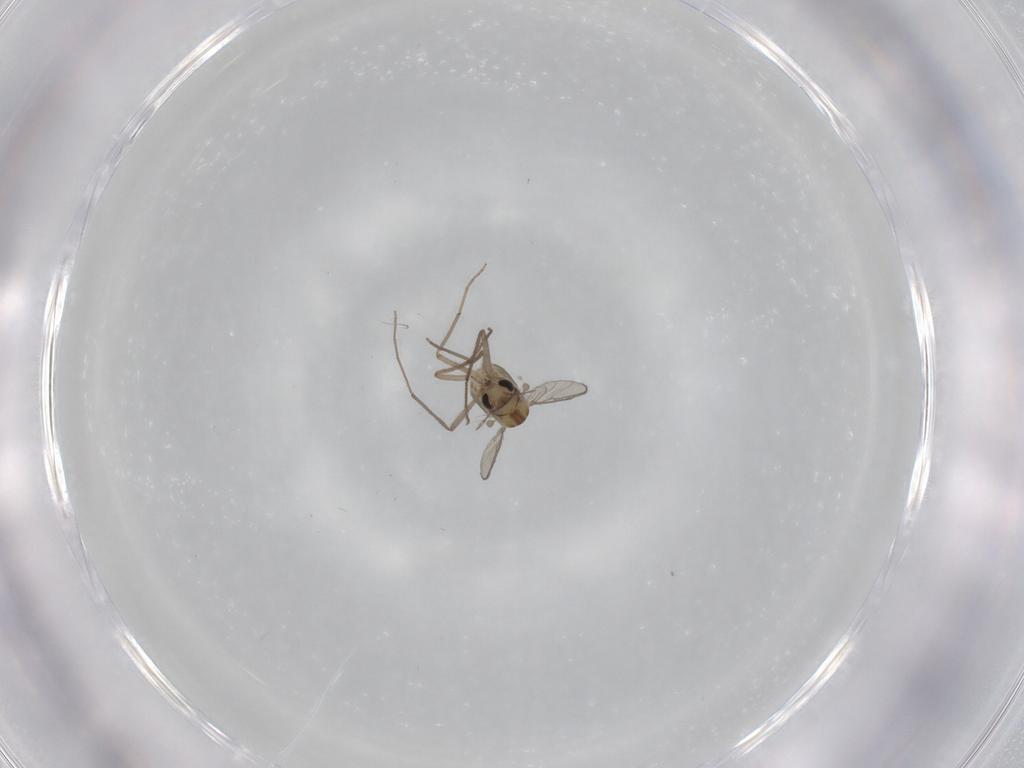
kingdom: Animalia
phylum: Arthropoda
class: Insecta
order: Diptera
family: Chironomidae
